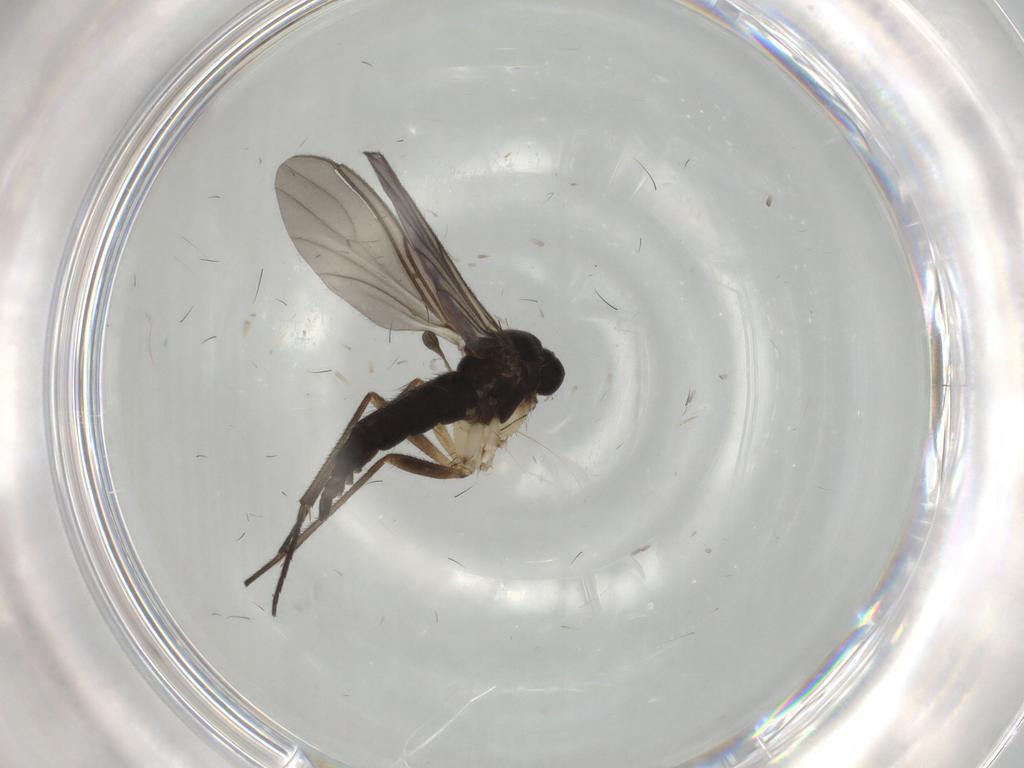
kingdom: Animalia
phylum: Arthropoda
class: Insecta
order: Diptera
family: Sciaridae
